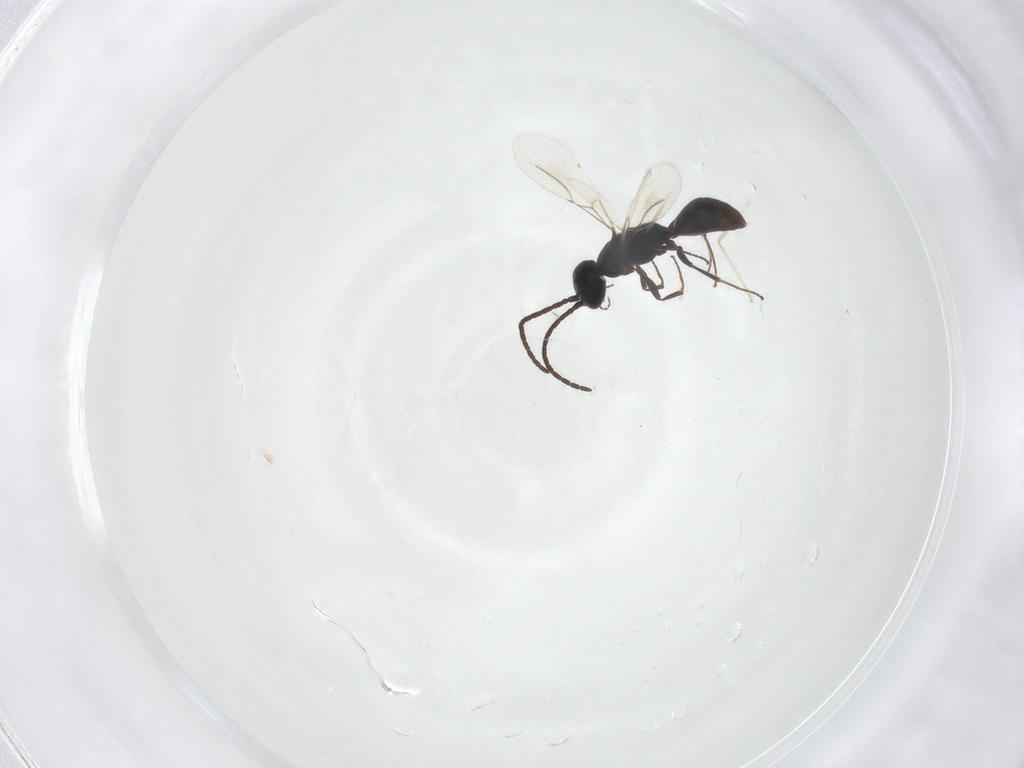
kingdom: Animalia
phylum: Arthropoda
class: Insecta
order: Hymenoptera
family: Bethylidae
